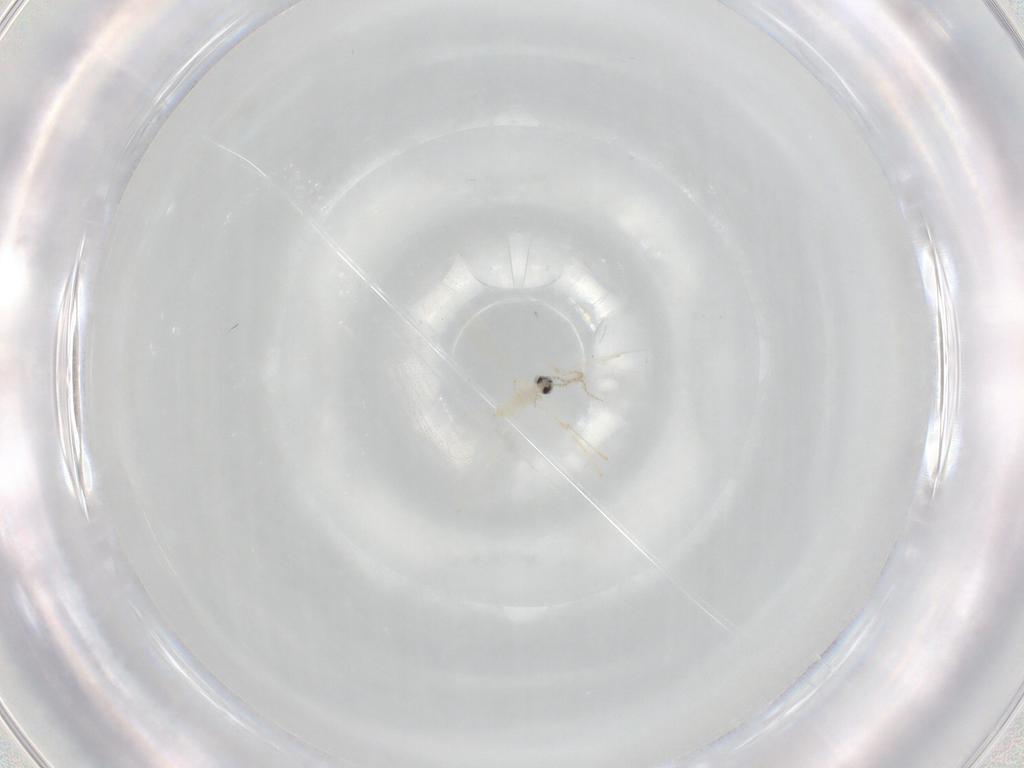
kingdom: Animalia
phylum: Arthropoda
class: Insecta
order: Diptera
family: Cecidomyiidae
